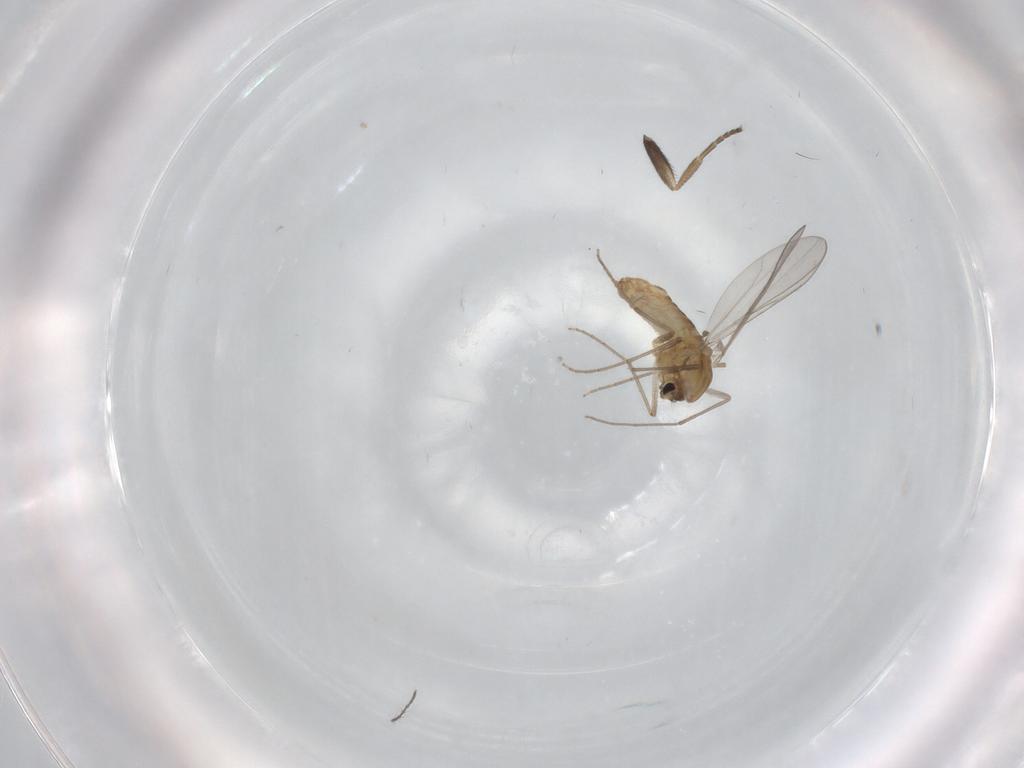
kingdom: Animalia
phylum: Arthropoda
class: Insecta
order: Diptera
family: Chironomidae
